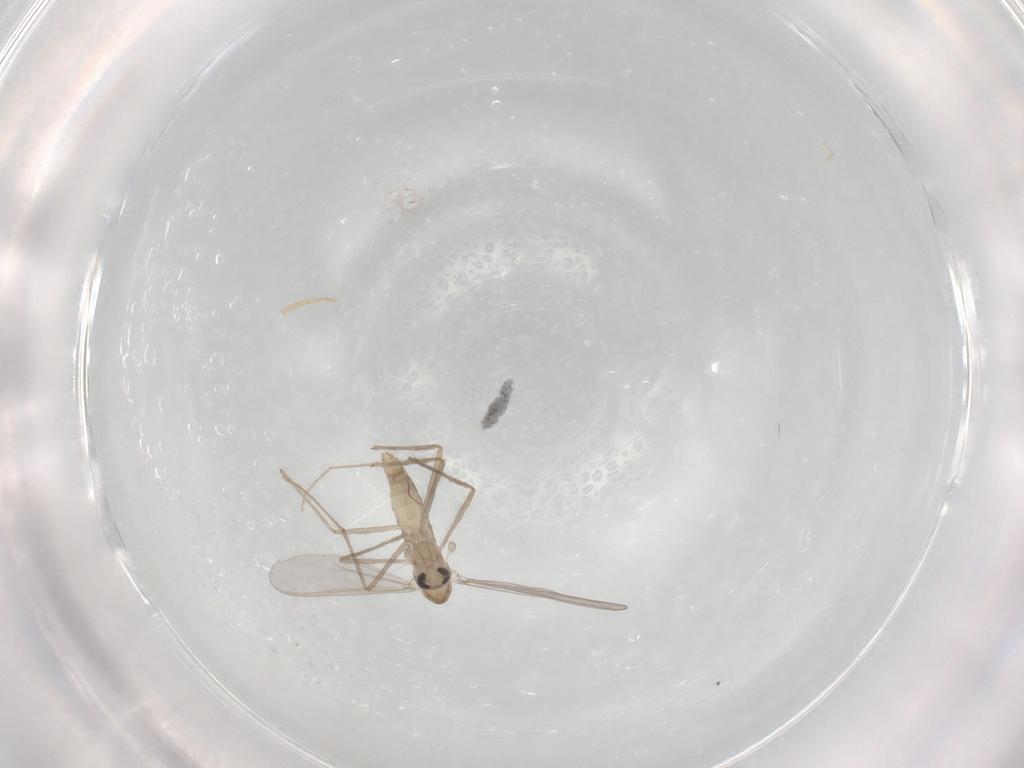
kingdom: Animalia
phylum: Arthropoda
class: Insecta
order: Diptera
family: Chironomidae
